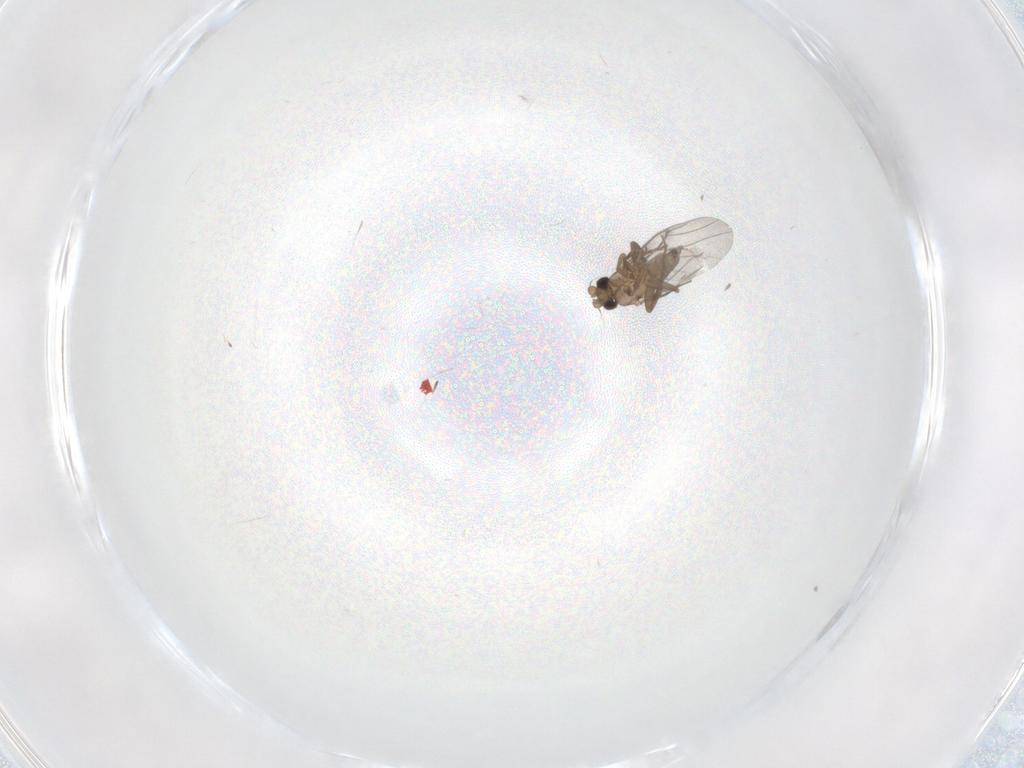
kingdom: Animalia
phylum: Arthropoda
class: Insecta
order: Diptera
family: Cecidomyiidae
